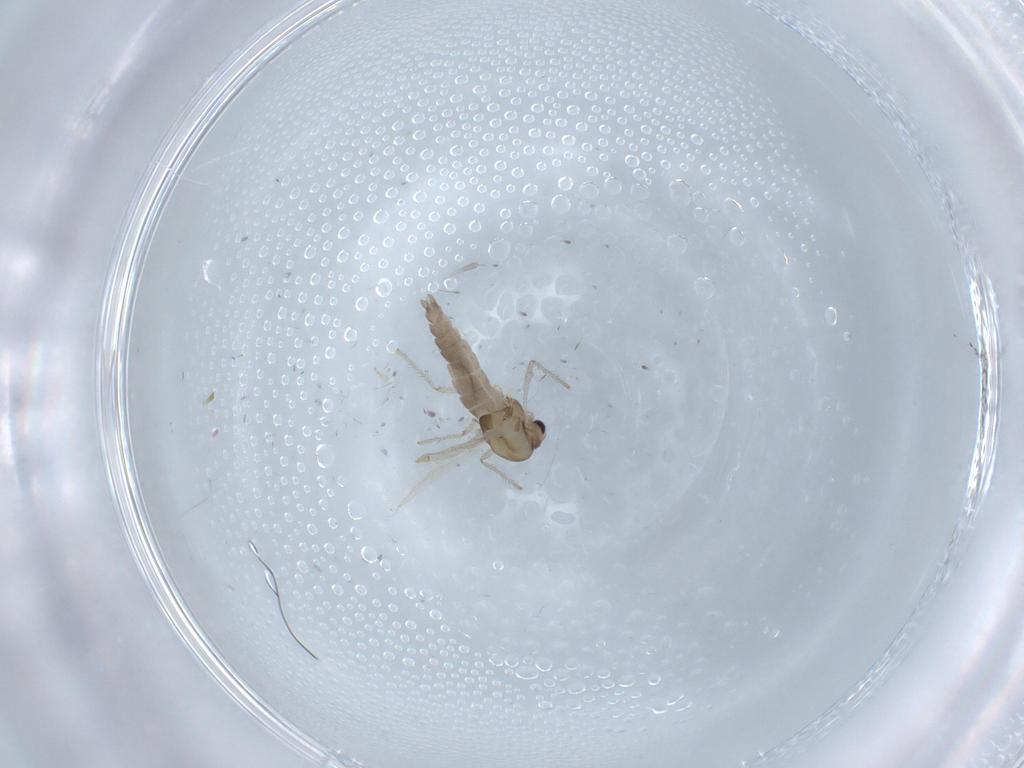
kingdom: Animalia
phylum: Arthropoda
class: Insecta
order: Diptera
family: Chironomidae
